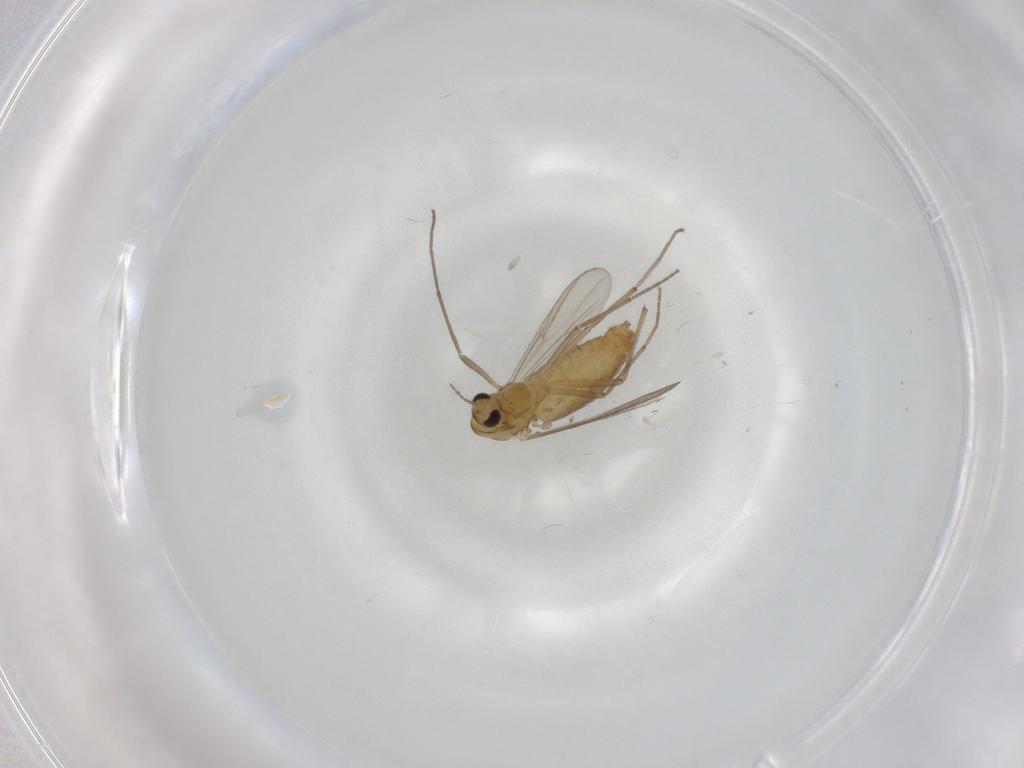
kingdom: Animalia
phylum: Arthropoda
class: Insecta
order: Diptera
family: Chironomidae
